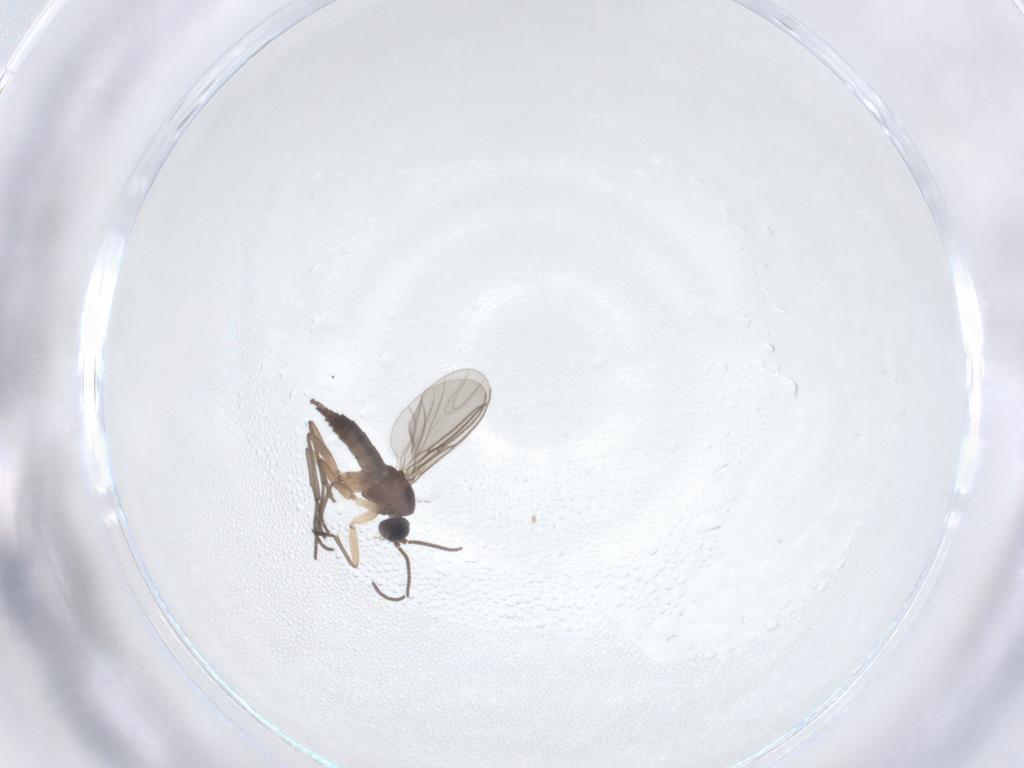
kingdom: Animalia
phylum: Arthropoda
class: Insecta
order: Diptera
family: Sciaridae
